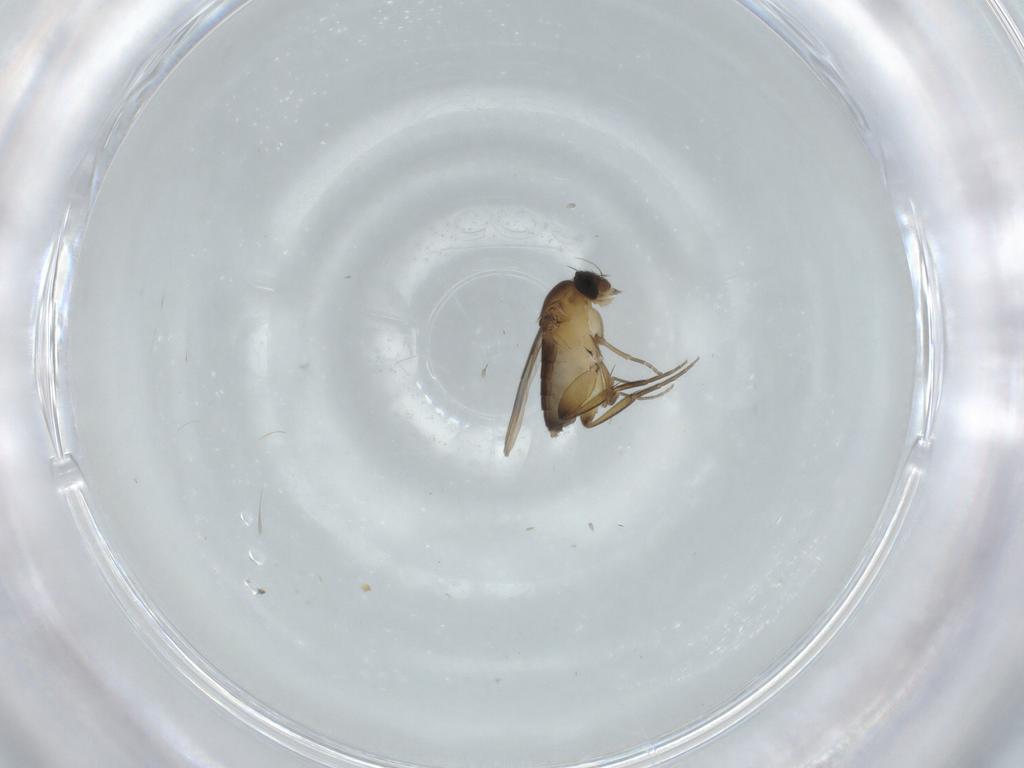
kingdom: Animalia
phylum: Arthropoda
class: Insecta
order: Diptera
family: Phoridae
